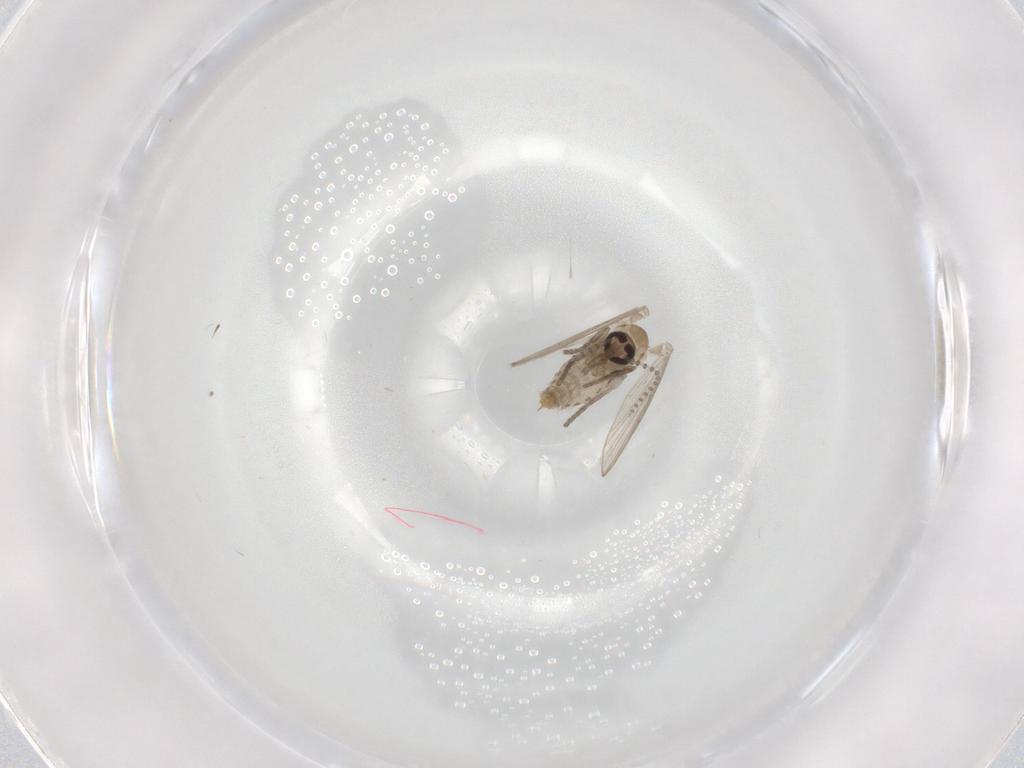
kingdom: Animalia
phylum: Arthropoda
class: Insecta
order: Diptera
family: Psychodidae
